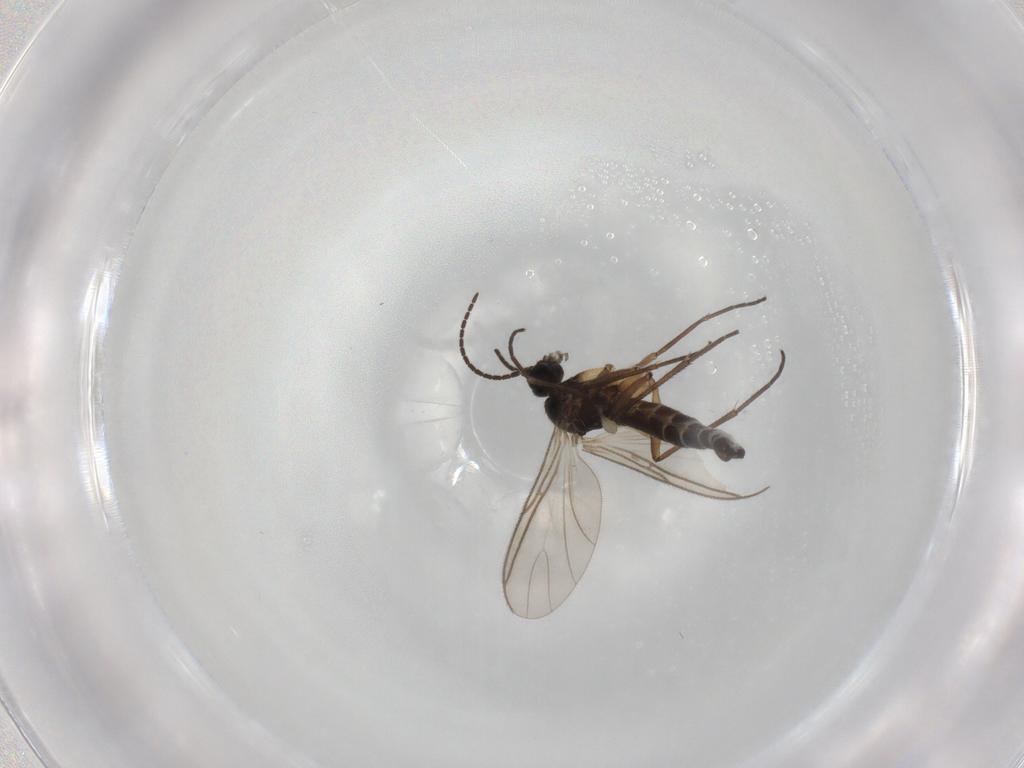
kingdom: Animalia
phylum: Arthropoda
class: Insecta
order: Diptera
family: Sciaridae
